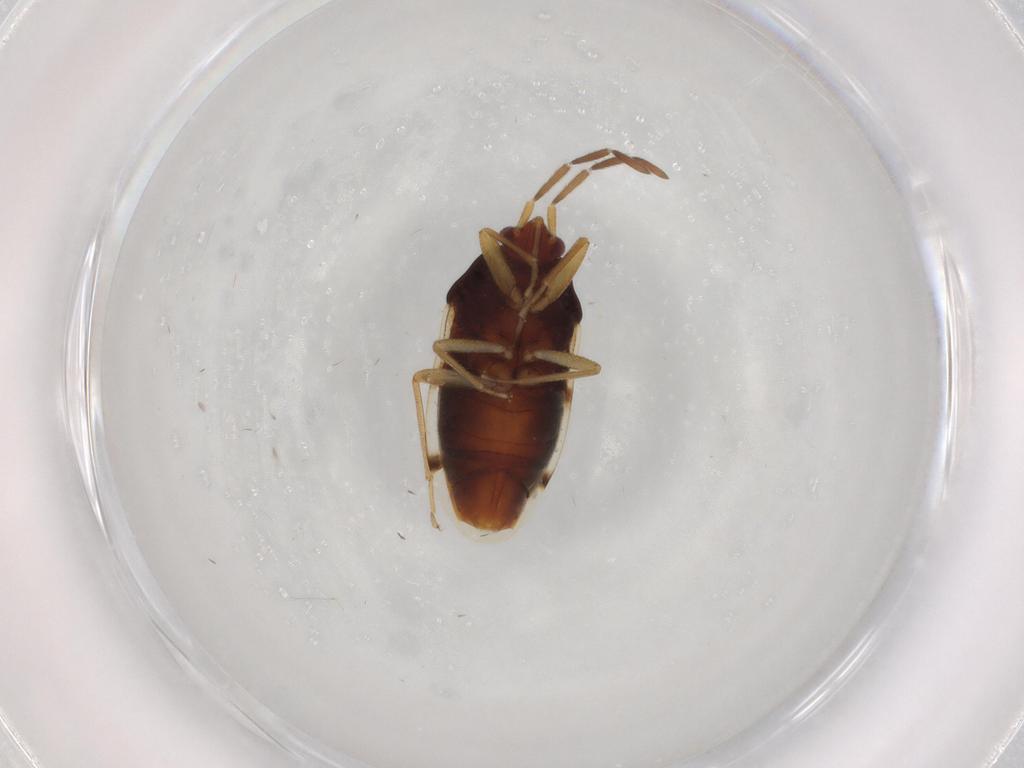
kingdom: Animalia
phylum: Arthropoda
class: Insecta
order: Hemiptera
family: Rhyparochromidae
